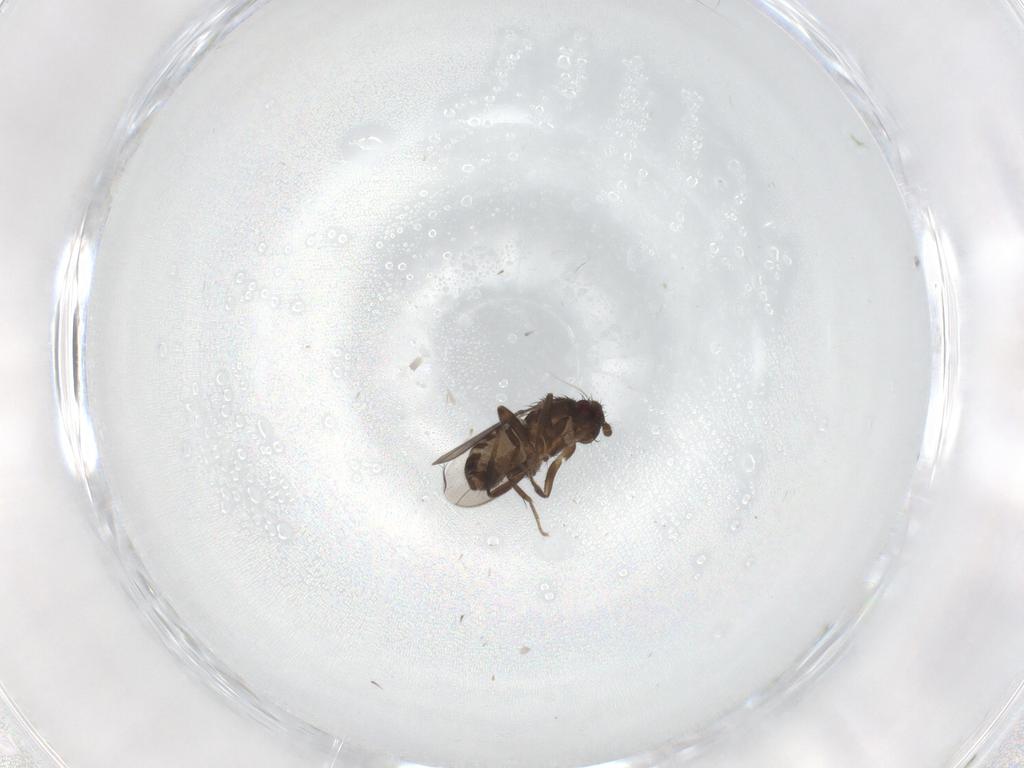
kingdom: Animalia
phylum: Arthropoda
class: Insecta
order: Diptera
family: Sphaeroceridae
